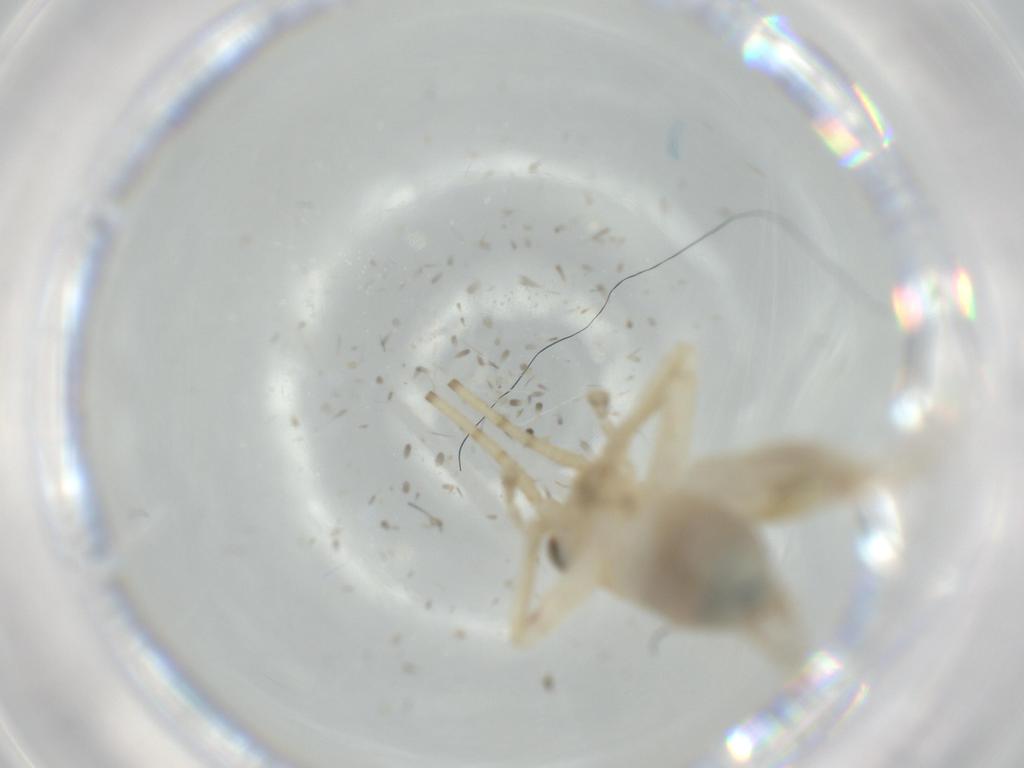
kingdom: Animalia
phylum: Arthropoda
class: Insecta
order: Orthoptera
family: Trigonidiidae
